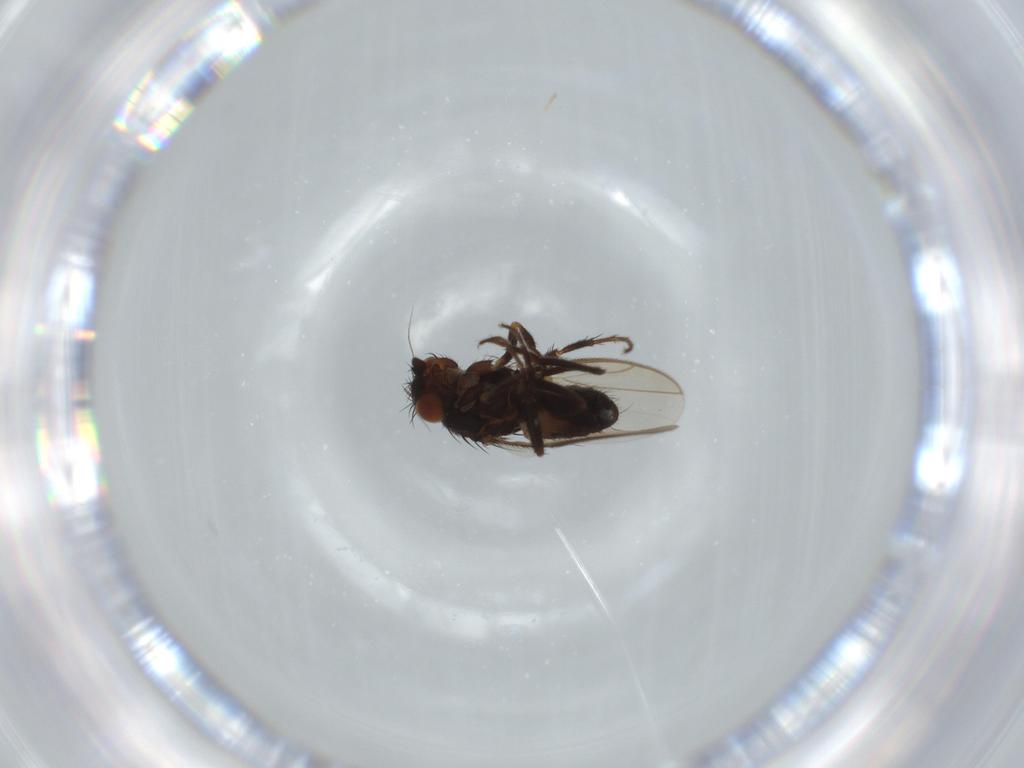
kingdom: Animalia
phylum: Arthropoda
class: Insecta
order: Diptera
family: Sphaeroceridae
